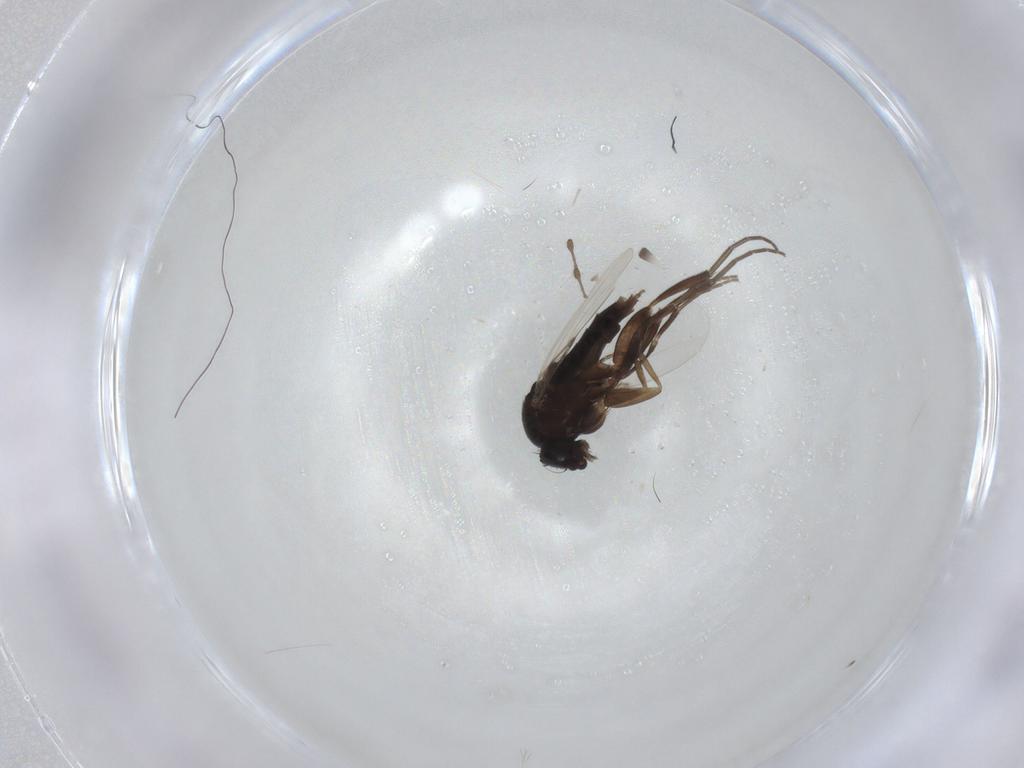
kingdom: Animalia
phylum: Arthropoda
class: Insecta
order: Diptera
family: Phoridae
